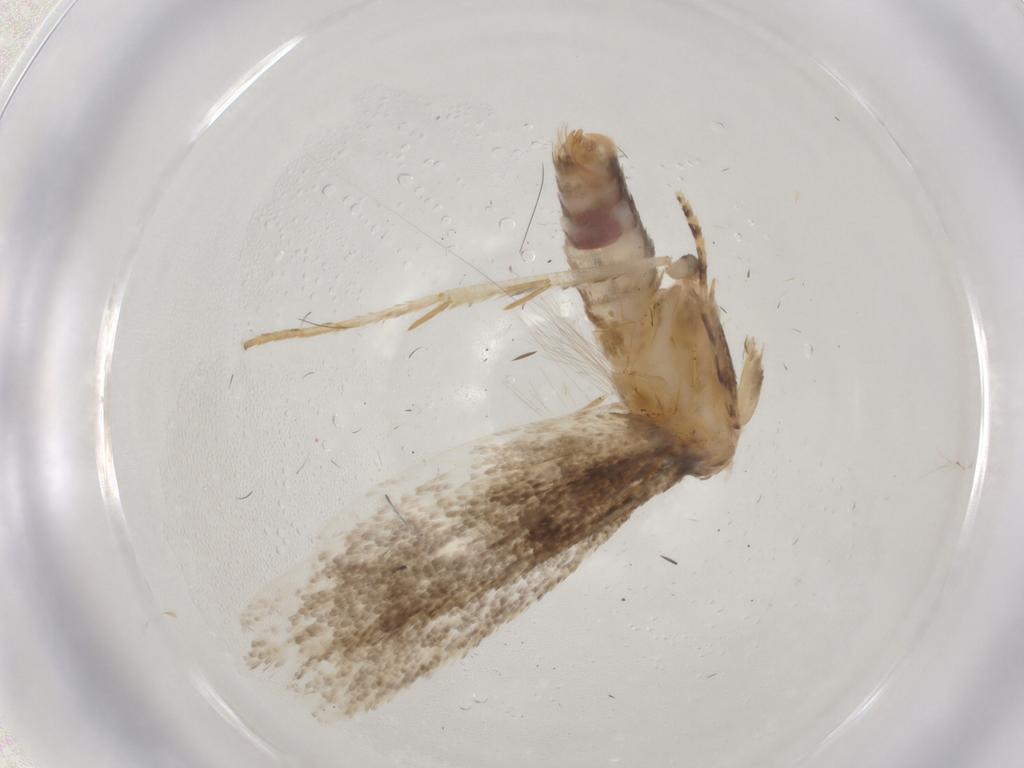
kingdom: Animalia
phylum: Arthropoda
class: Insecta
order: Lepidoptera
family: Gelechiidae
